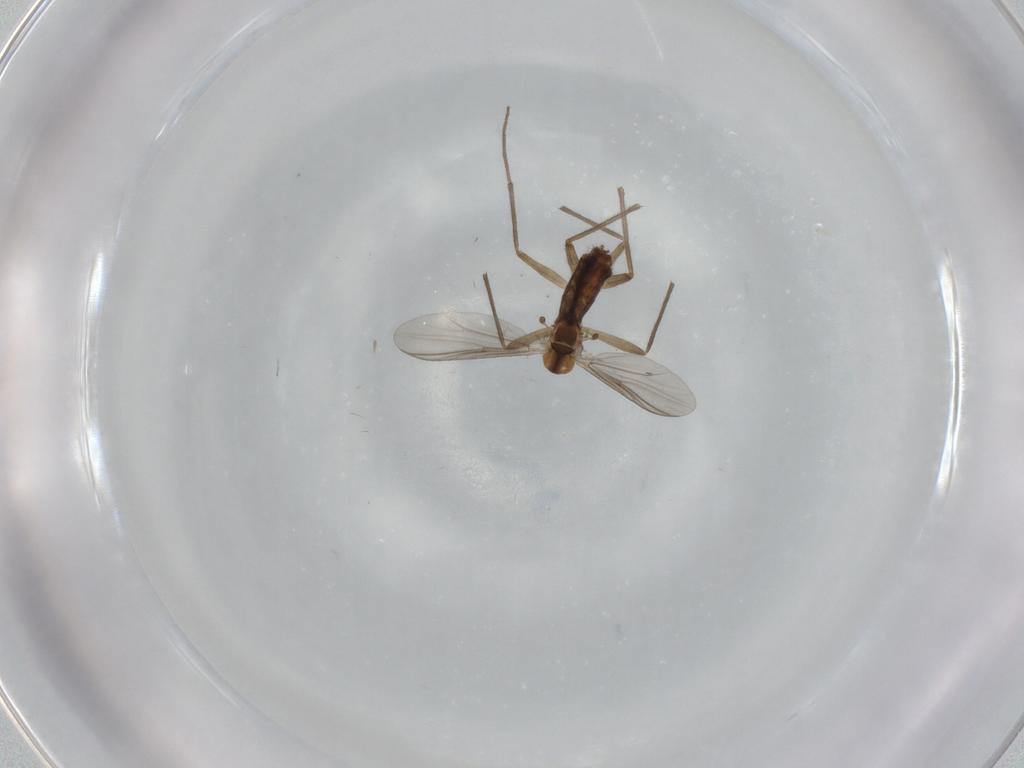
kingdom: Animalia
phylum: Arthropoda
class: Insecta
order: Diptera
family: Chironomidae
